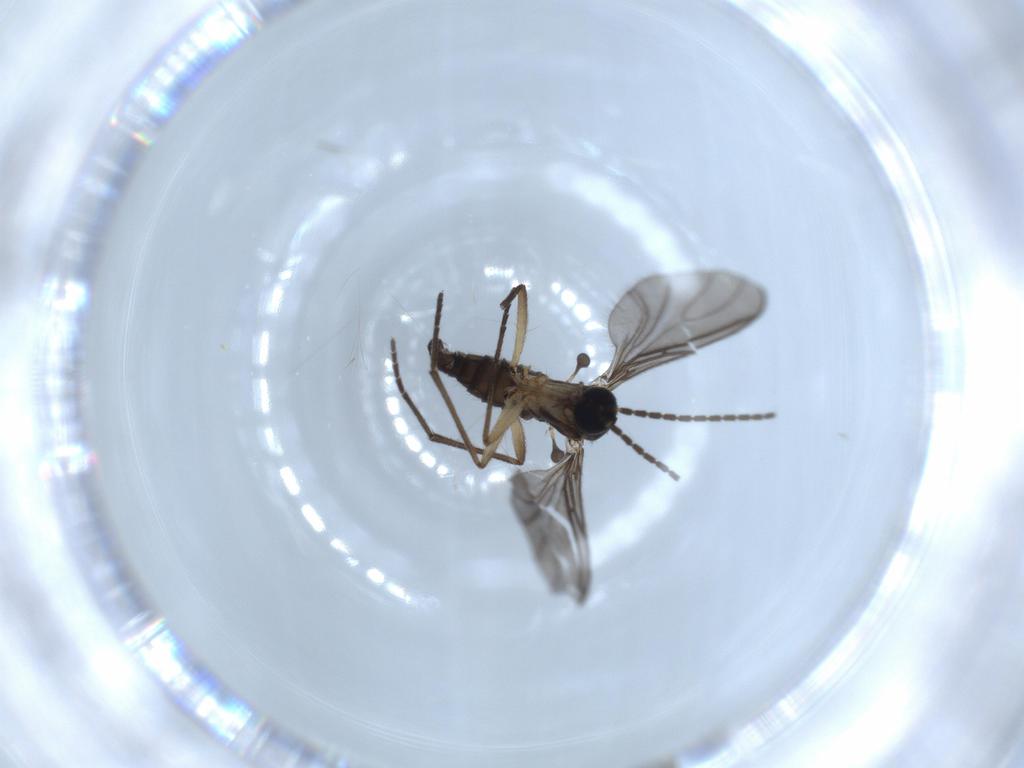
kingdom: Animalia
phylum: Arthropoda
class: Insecta
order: Diptera
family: Sciaridae
